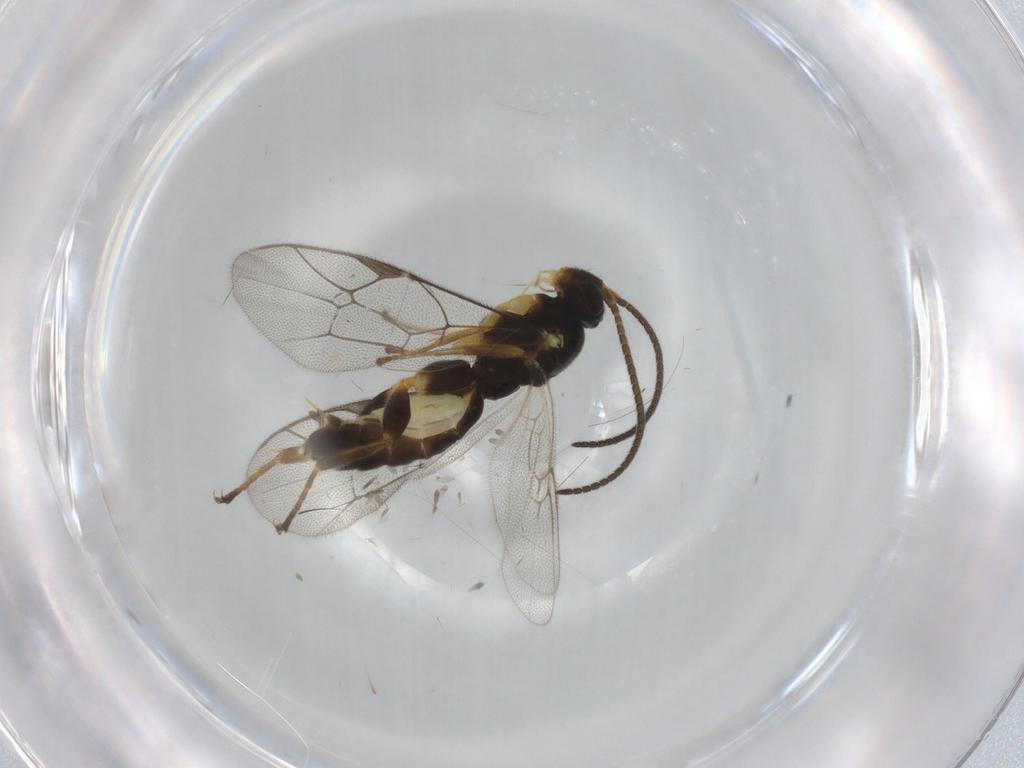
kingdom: Animalia
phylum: Arthropoda
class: Insecta
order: Hymenoptera
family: Ichneumonidae
